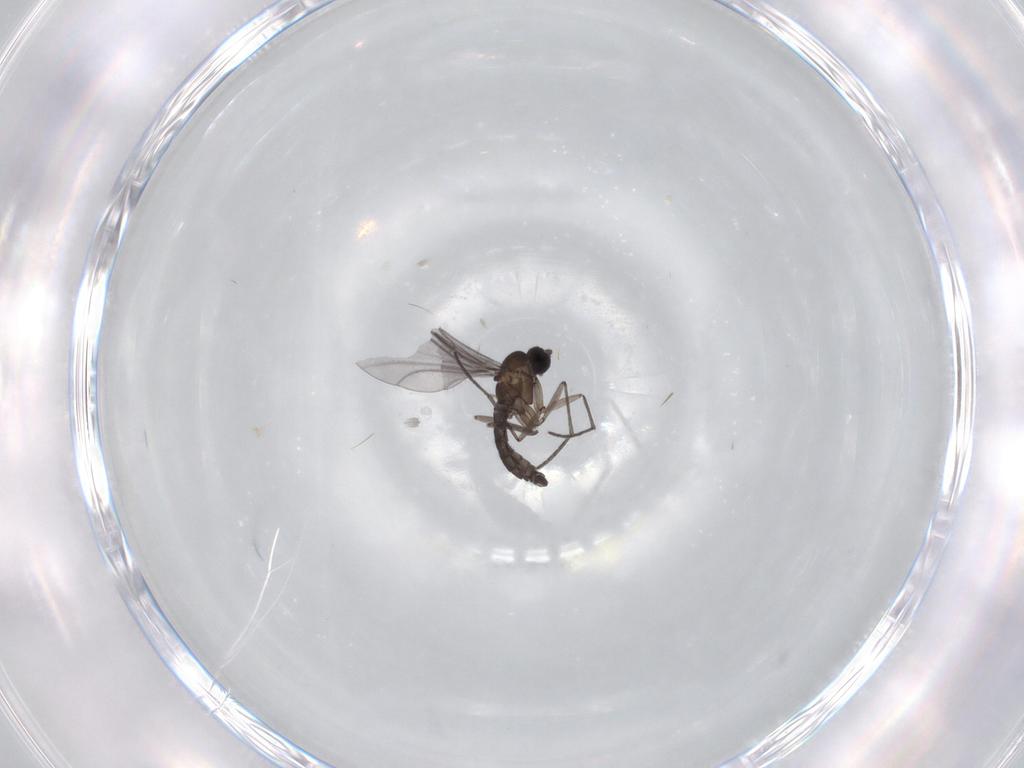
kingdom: Animalia
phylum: Arthropoda
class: Insecta
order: Diptera
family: Sciaridae
